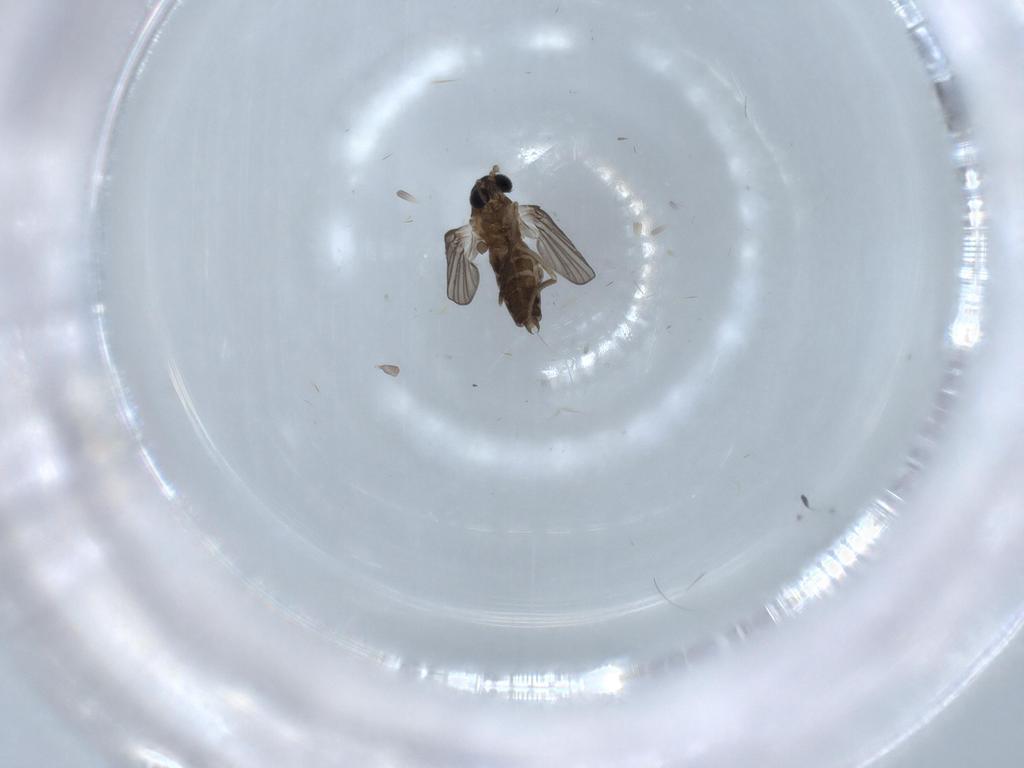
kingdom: Animalia
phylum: Arthropoda
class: Insecta
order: Diptera
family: Psychodidae
